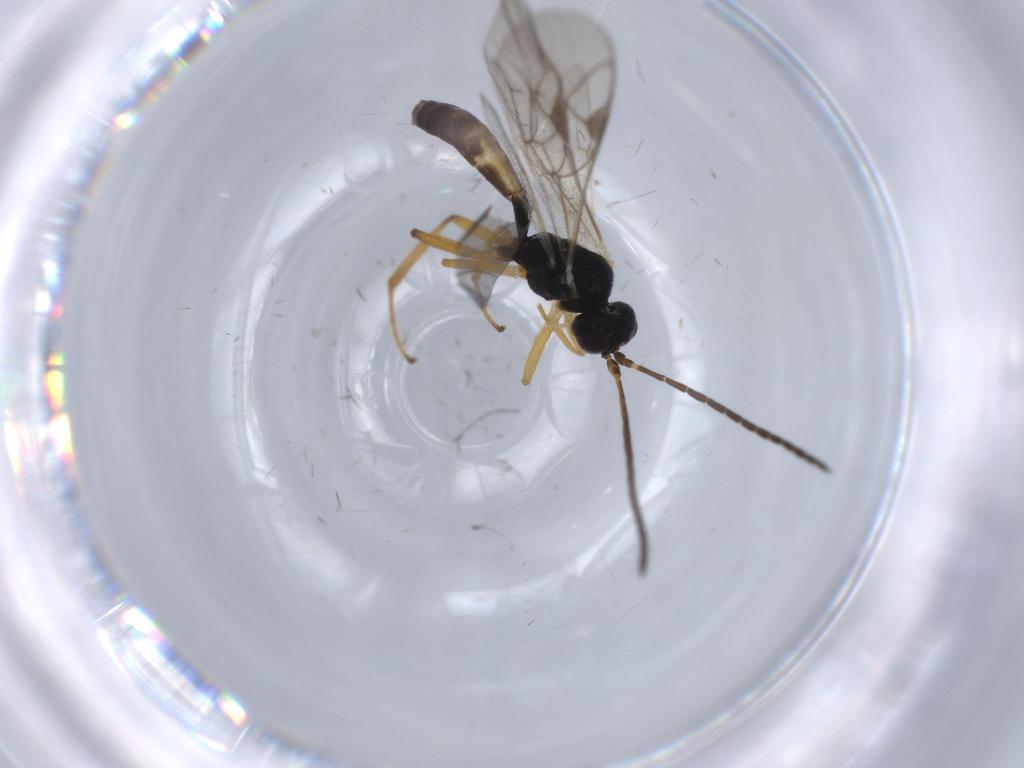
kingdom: Animalia
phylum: Arthropoda
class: Insecta
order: Hymenoptera
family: Ichneumonidae
